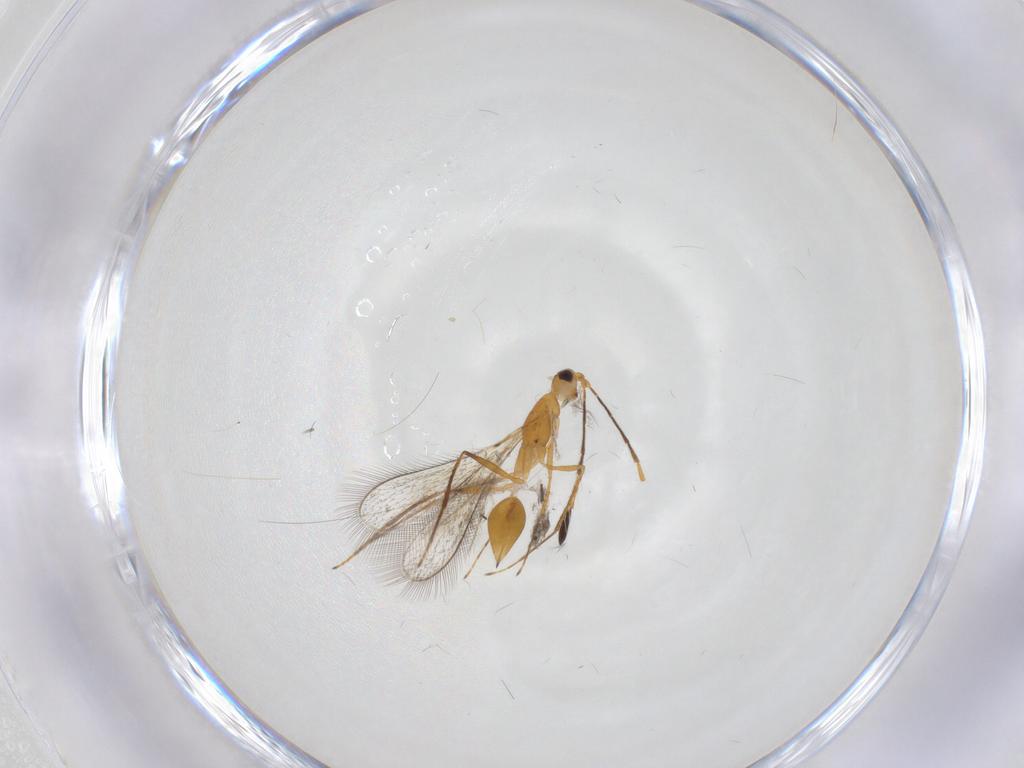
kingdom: Animalia
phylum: Arthropoda
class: Insecta
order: Hymenoptera
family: Mymaridae
